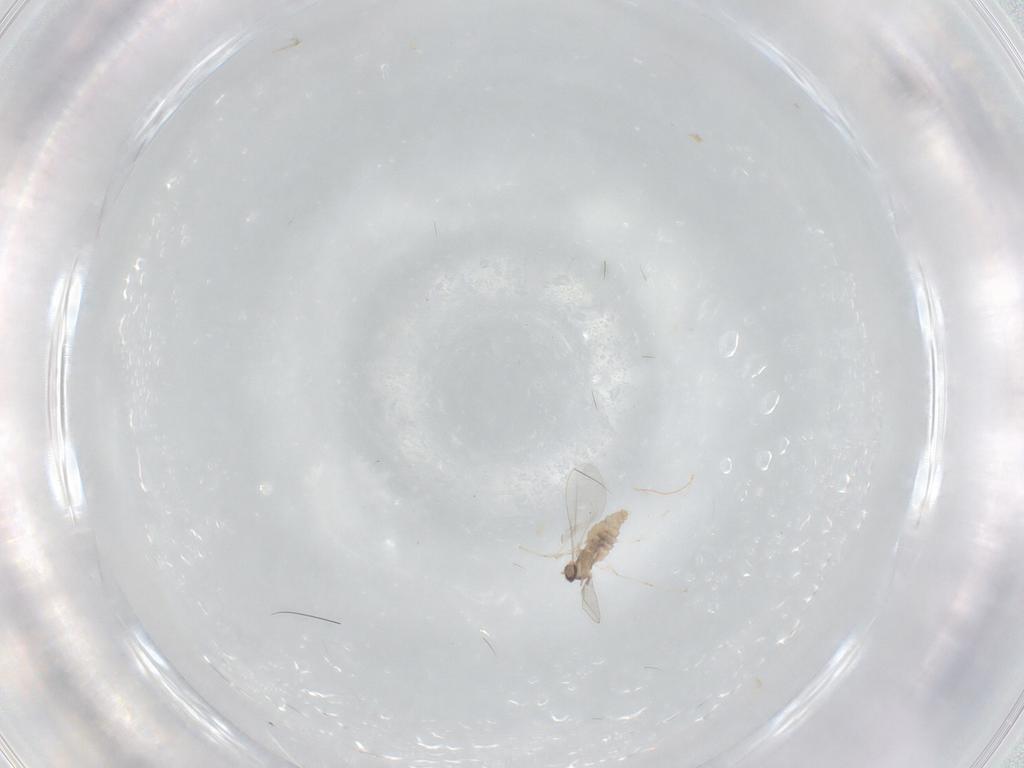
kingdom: Animalia
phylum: Arthropoda
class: Insecta
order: Diptera
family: Cecidomyiidae
